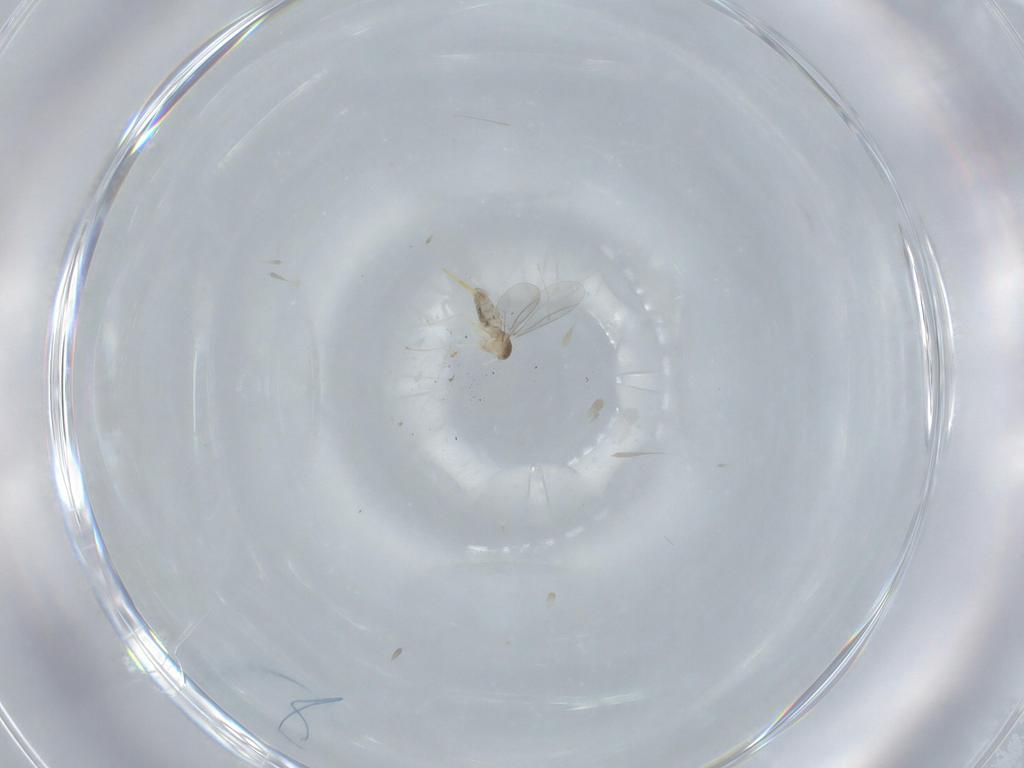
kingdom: Animalia
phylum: Arthropoda
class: Insecta
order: Diptera
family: Cecidomyiidae
